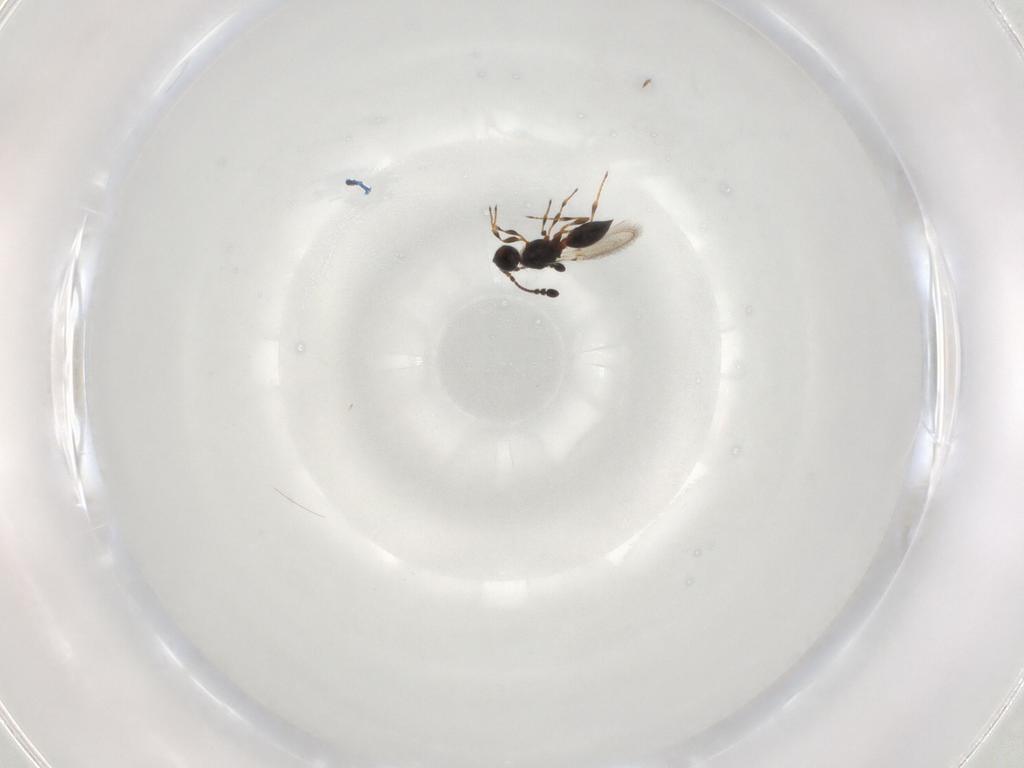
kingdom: Animalia
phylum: Arthropoda
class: Insecta
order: Hymenoptera
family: Diapriidae
